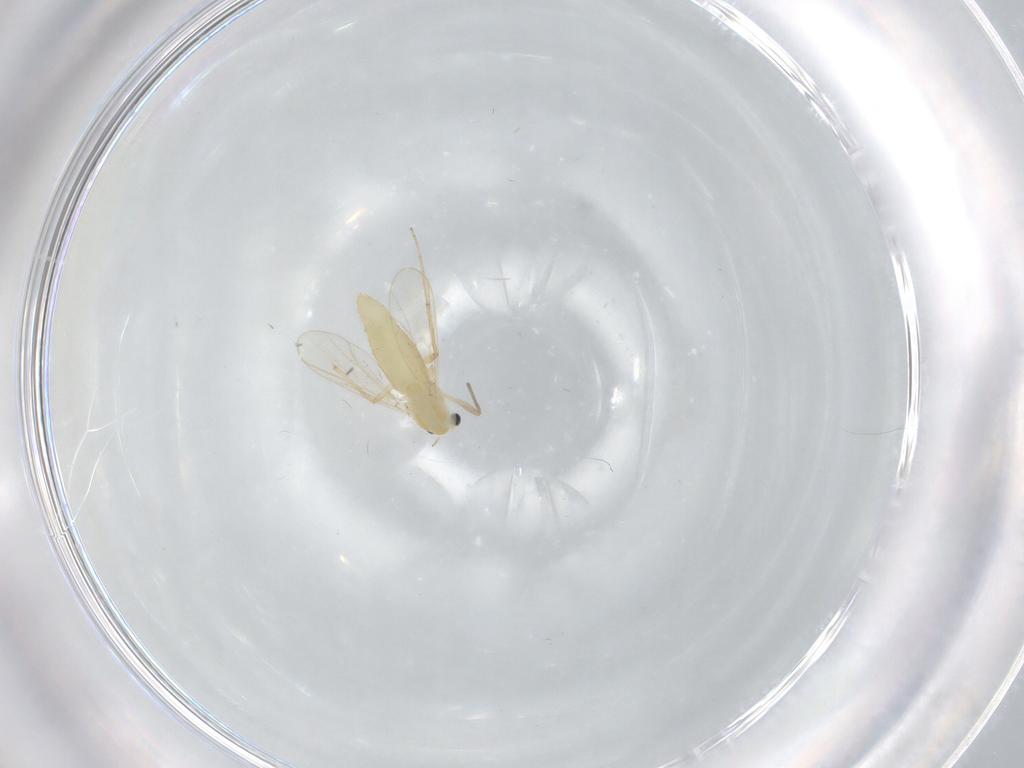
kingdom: Animalia
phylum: Arthropoda
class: Insecta
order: Diptera
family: Chironomidae
